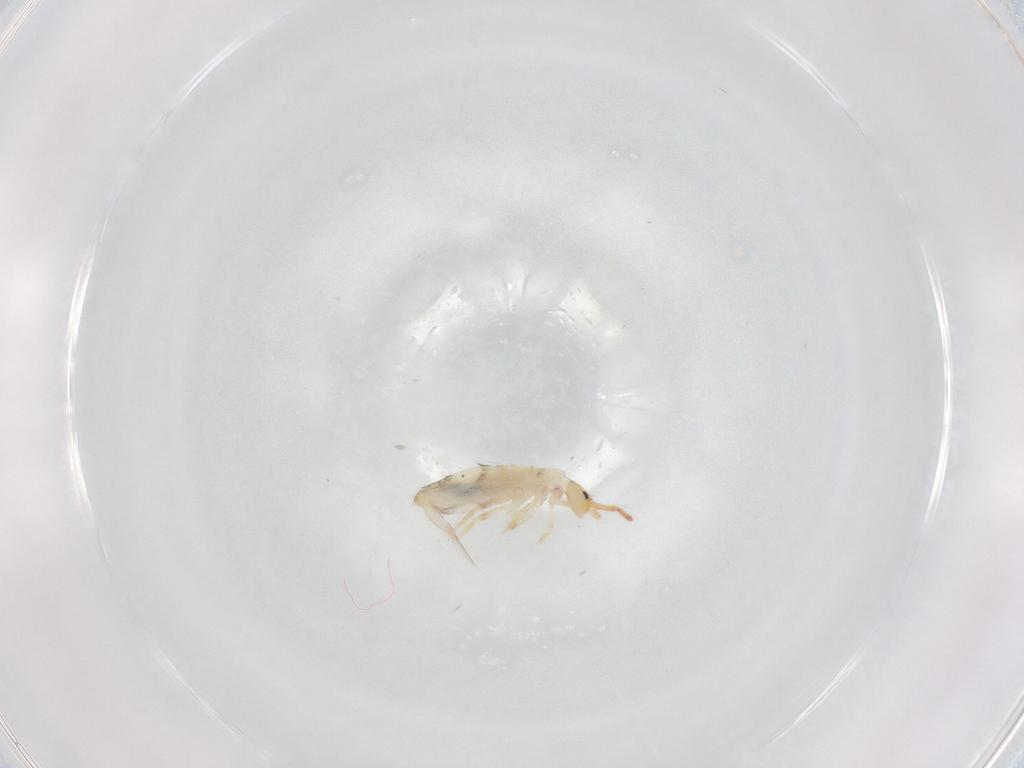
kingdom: Animalia
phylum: Arthropoda
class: Collembola
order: Poduromorpha
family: Hypogastruridae
